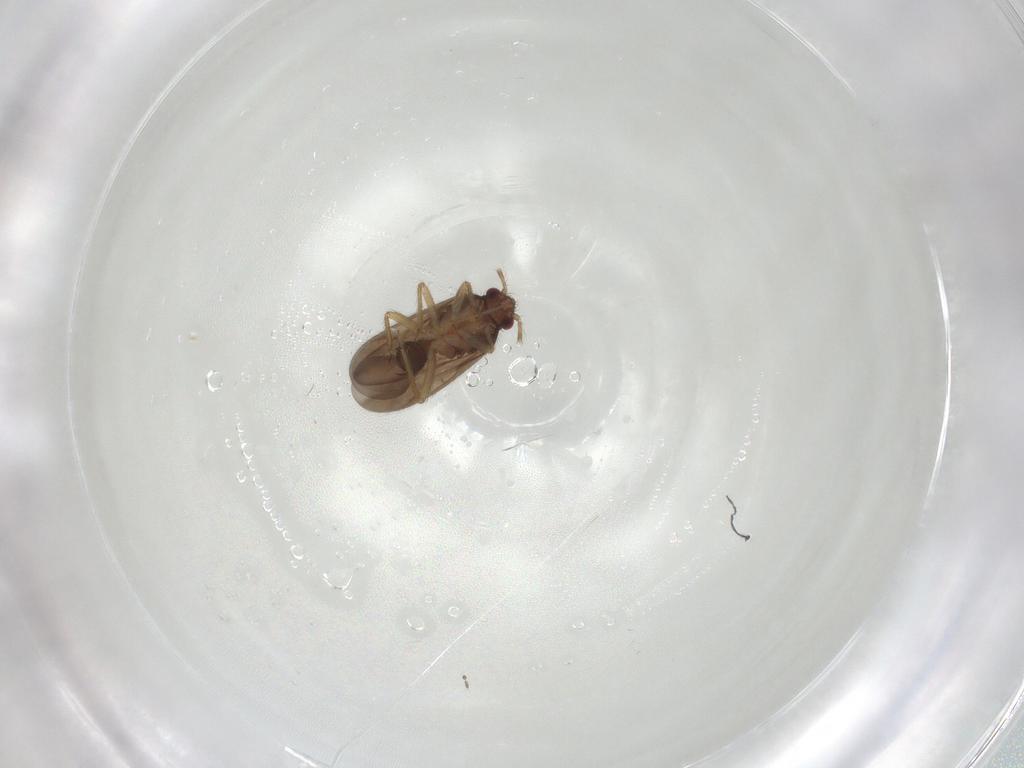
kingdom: Animalia
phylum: Arthropoda
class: Insecta
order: Hemiptera
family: Ceratocombidae
